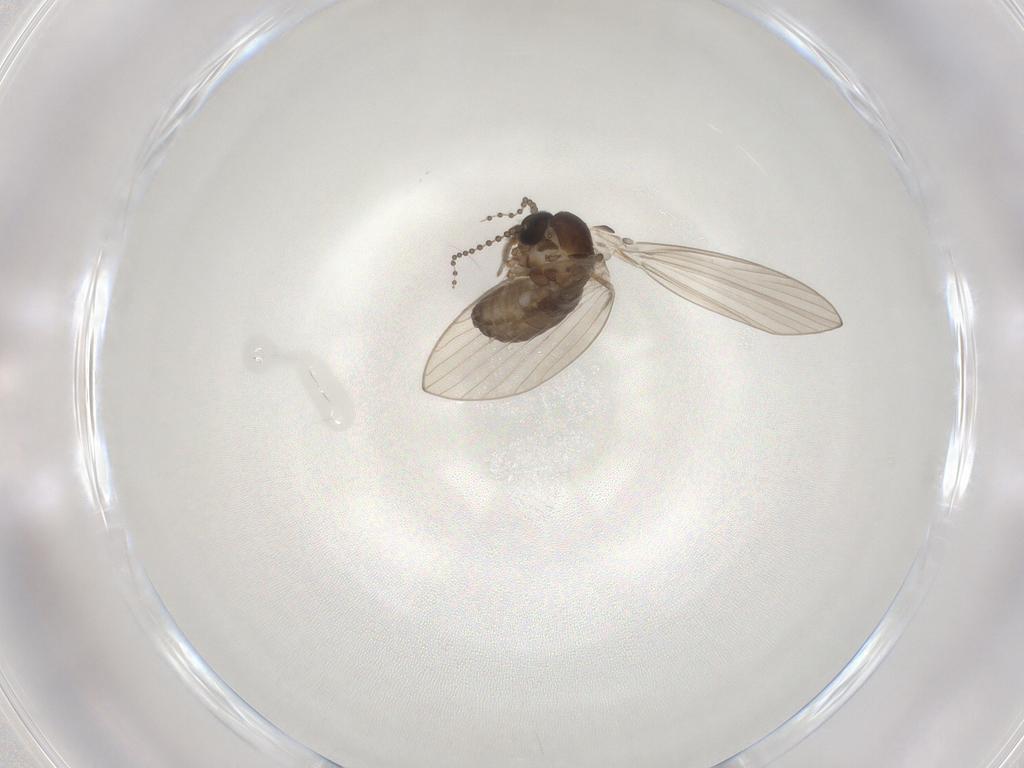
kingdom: Animalia
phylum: Arthropoda
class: Insecta
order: Diptera
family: Psychodidae
